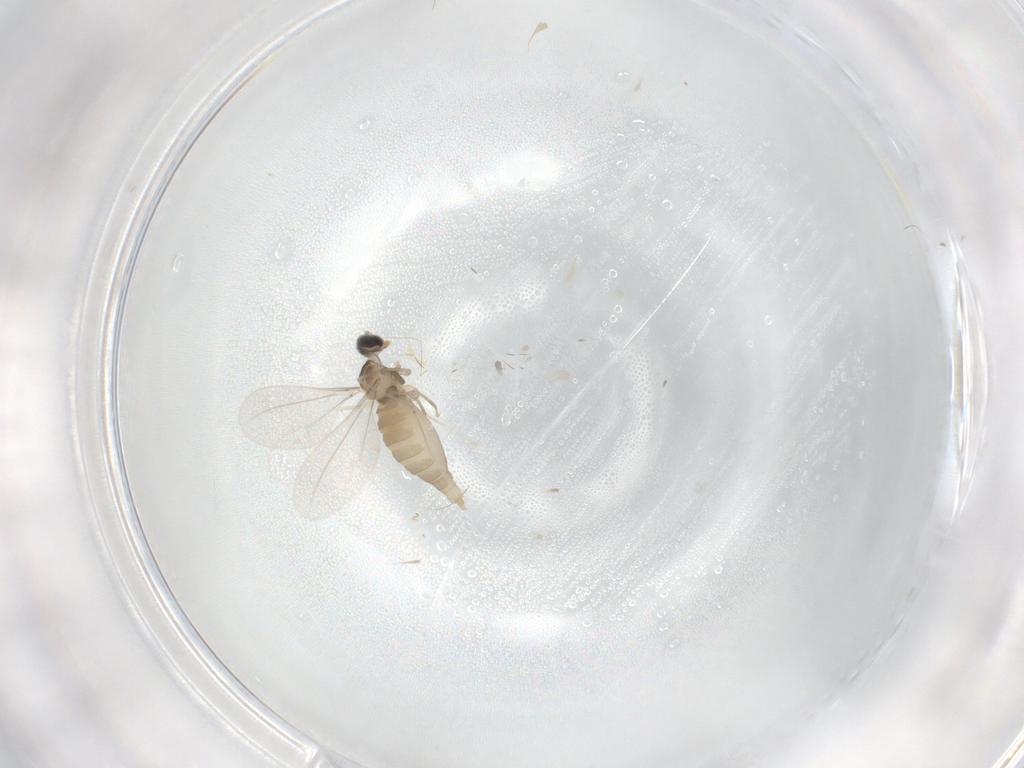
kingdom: Animalia
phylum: Arthropoda
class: Insecta
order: Diptera
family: Cecidomyiidae
